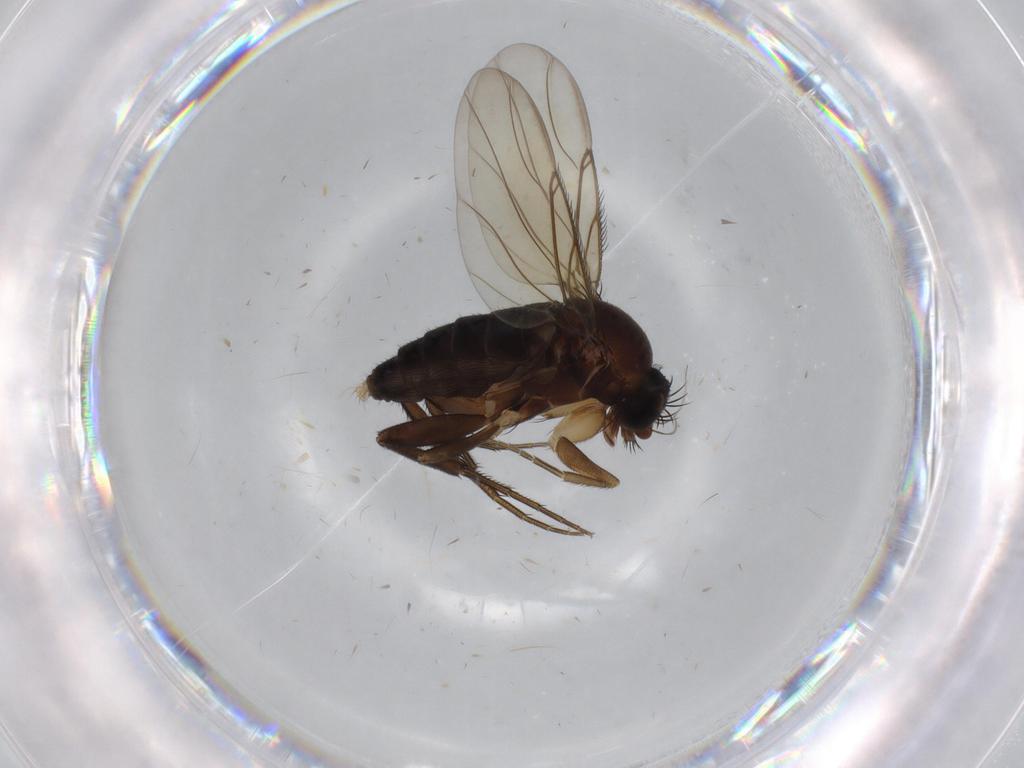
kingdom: Animalia
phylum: Arthropoda
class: Insecta
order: Diptera
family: Phoridae
